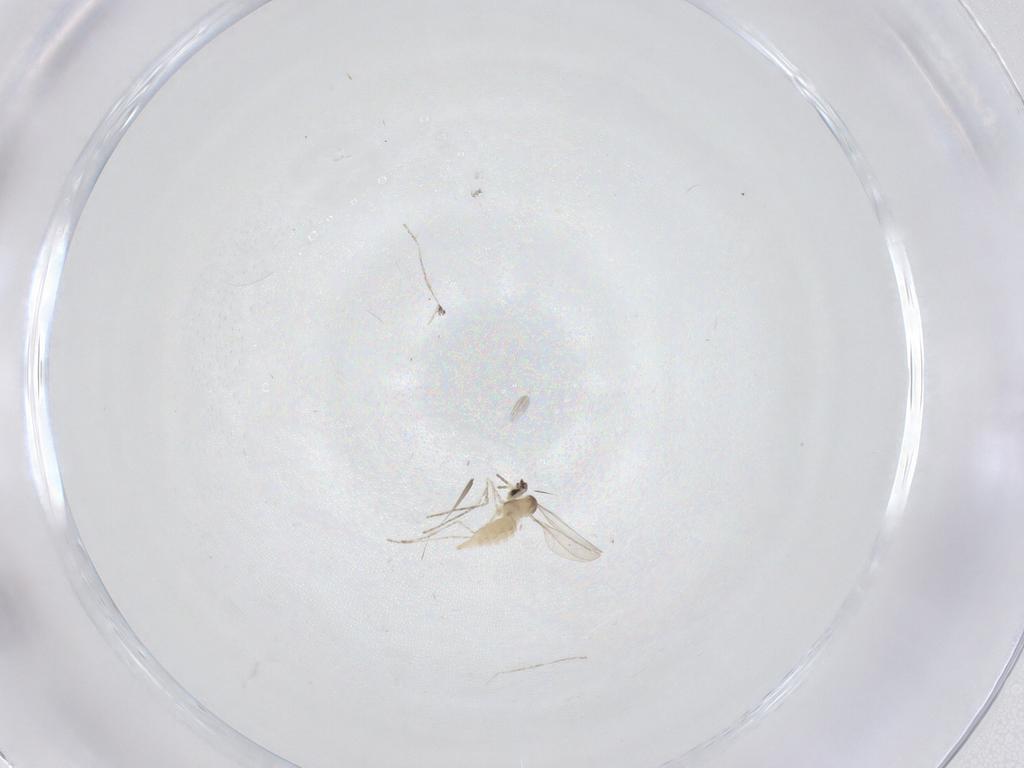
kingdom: Animalia
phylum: Arthropoda
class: Insecta
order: Diptera
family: Cecidomyiidae
